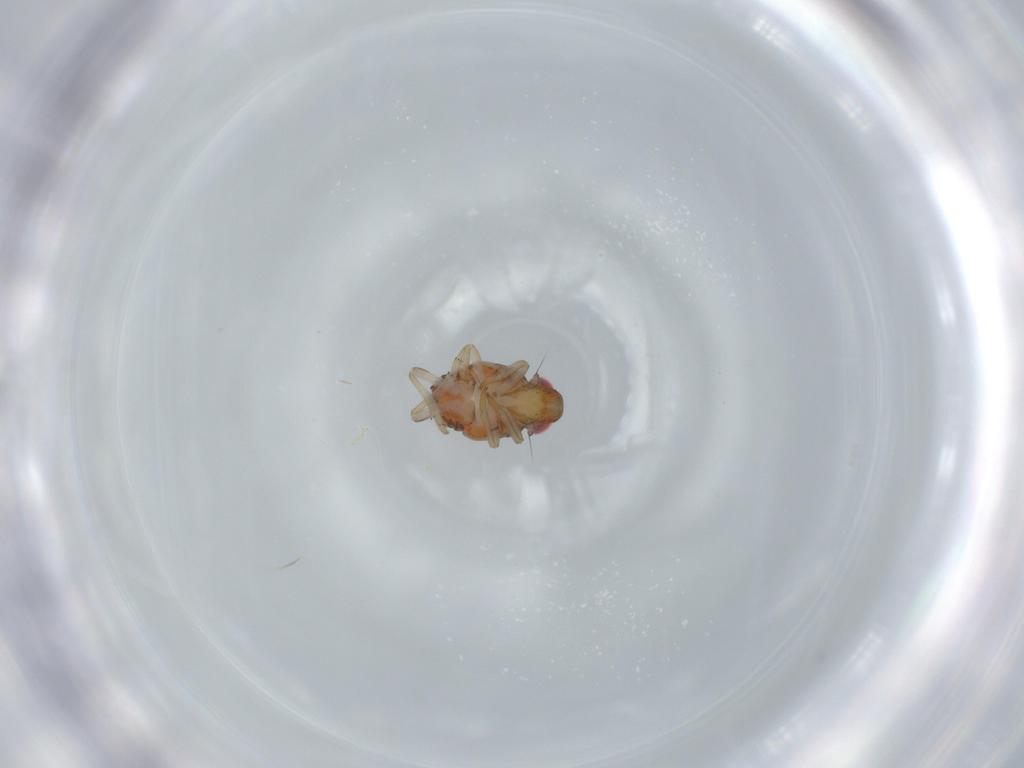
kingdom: Animalia
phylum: Arthropoda
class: Insecta
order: Hemiptera
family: Issidae
